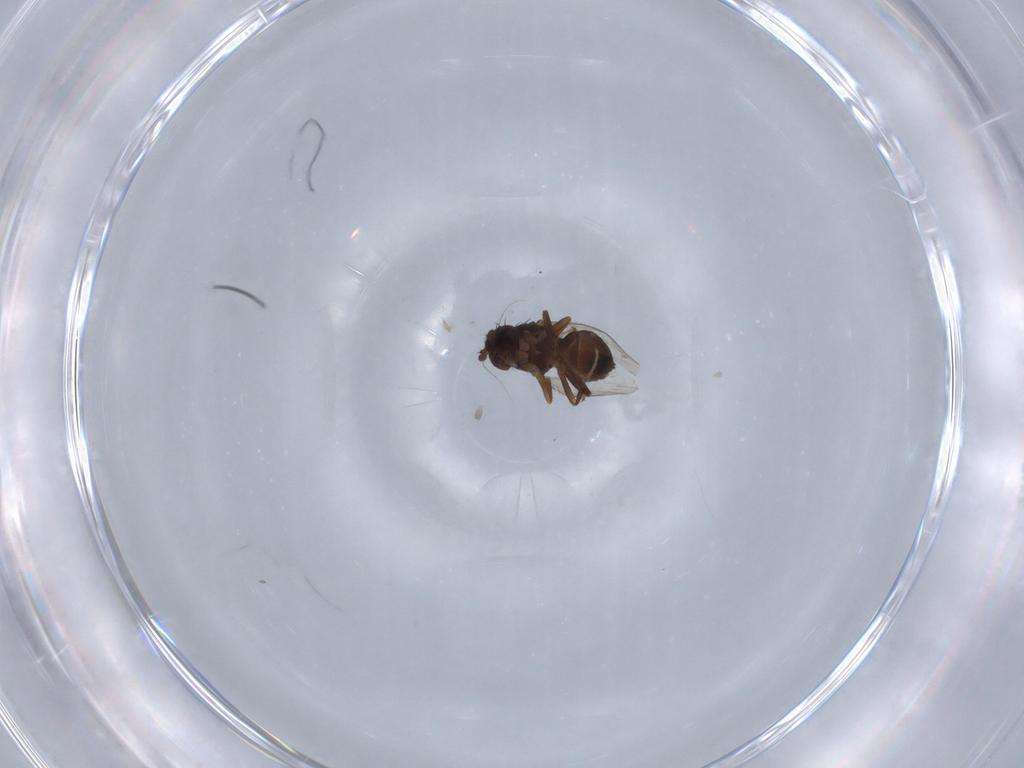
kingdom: Animalia
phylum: Arthropoda
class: Insecta
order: Diptera
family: Sphaeroceridae
